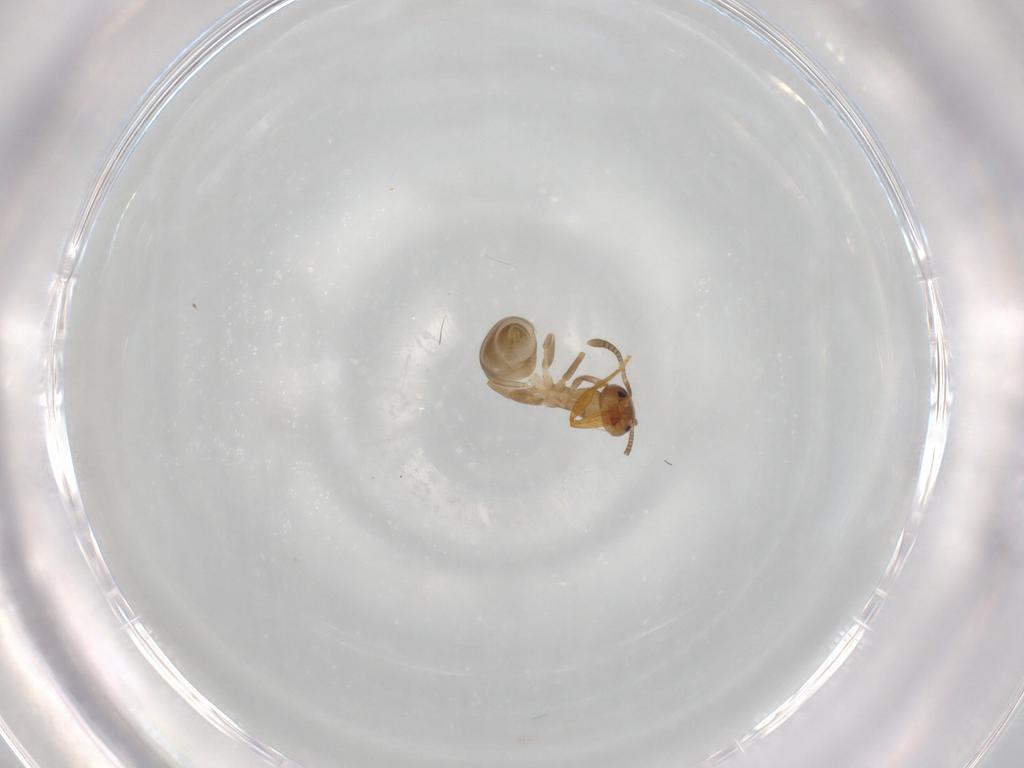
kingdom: Animalia
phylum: Arthropoda
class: Insecta
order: Hymenoptera
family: Formicidae
